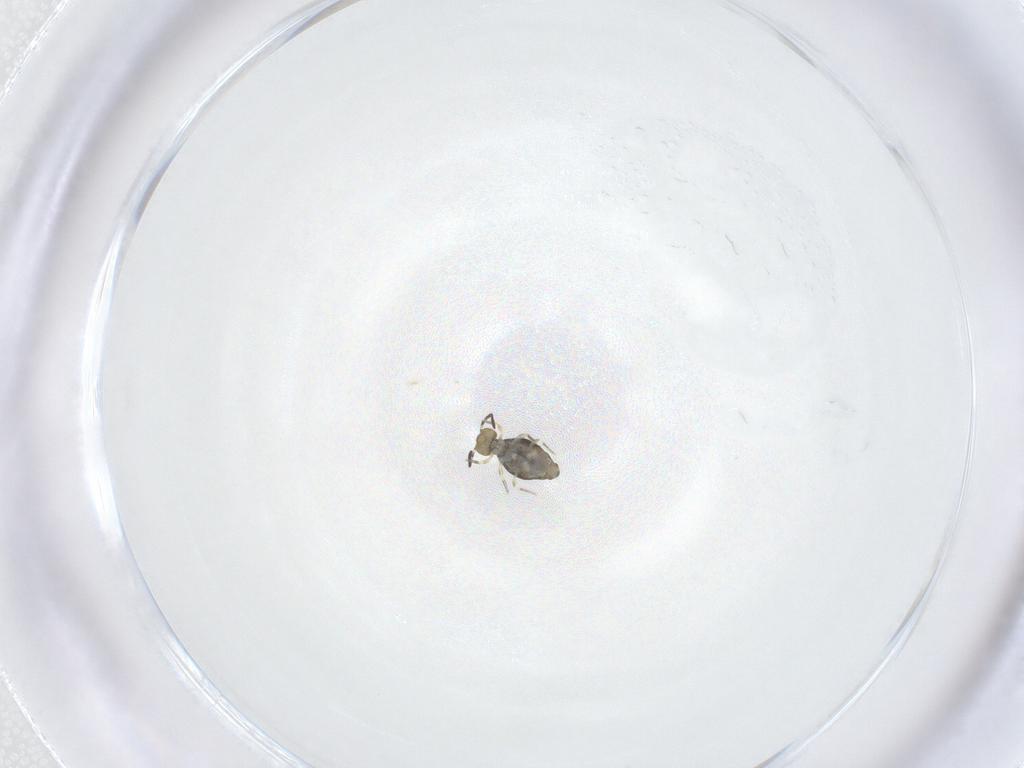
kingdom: Animalia
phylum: Arthropoda
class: Collembola
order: Symphypleona
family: Katiannidae
